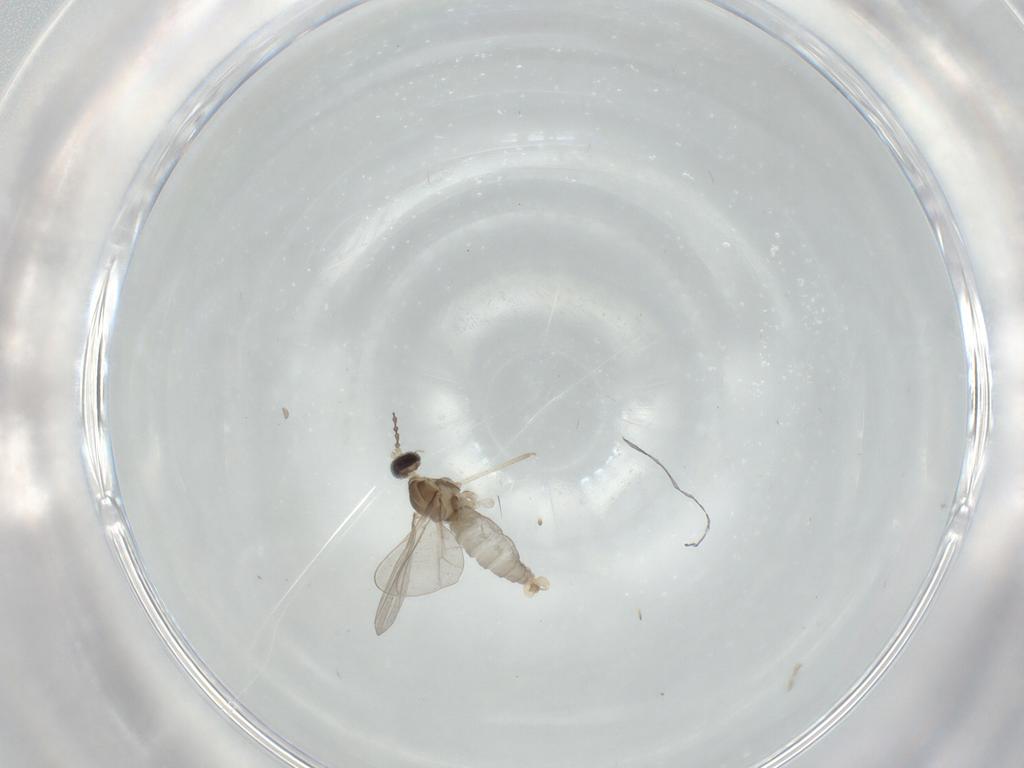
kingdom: Animalia
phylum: Arthropoda
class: Insecta
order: Diptera
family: Cecidomyiidae
